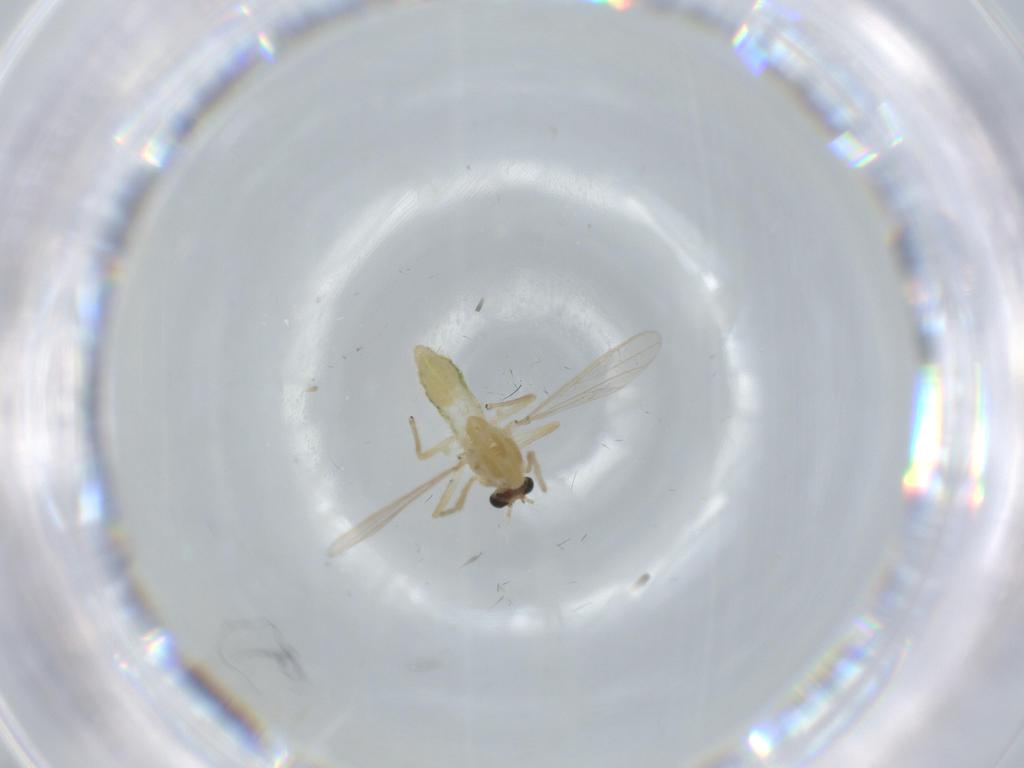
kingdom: Animalia
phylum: Arthropoda
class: Insecta
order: Diptera
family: Ceratopogonidae
